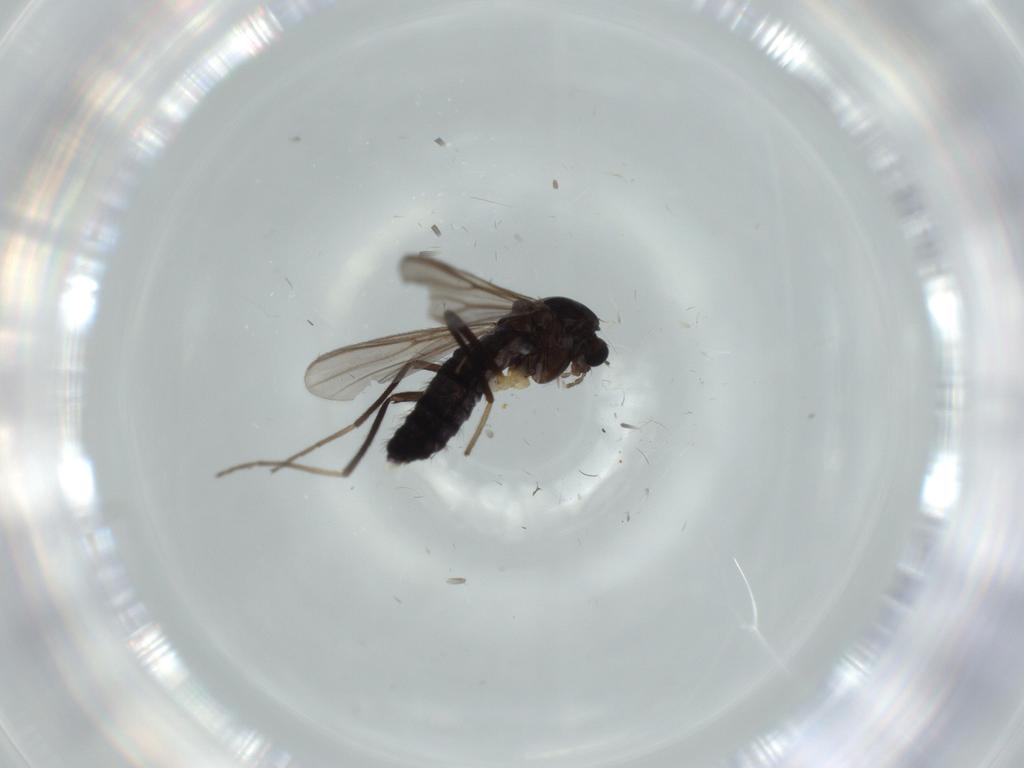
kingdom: Animalia
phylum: Arthropoda
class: Insecta
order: Diptera
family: Chironomidae
